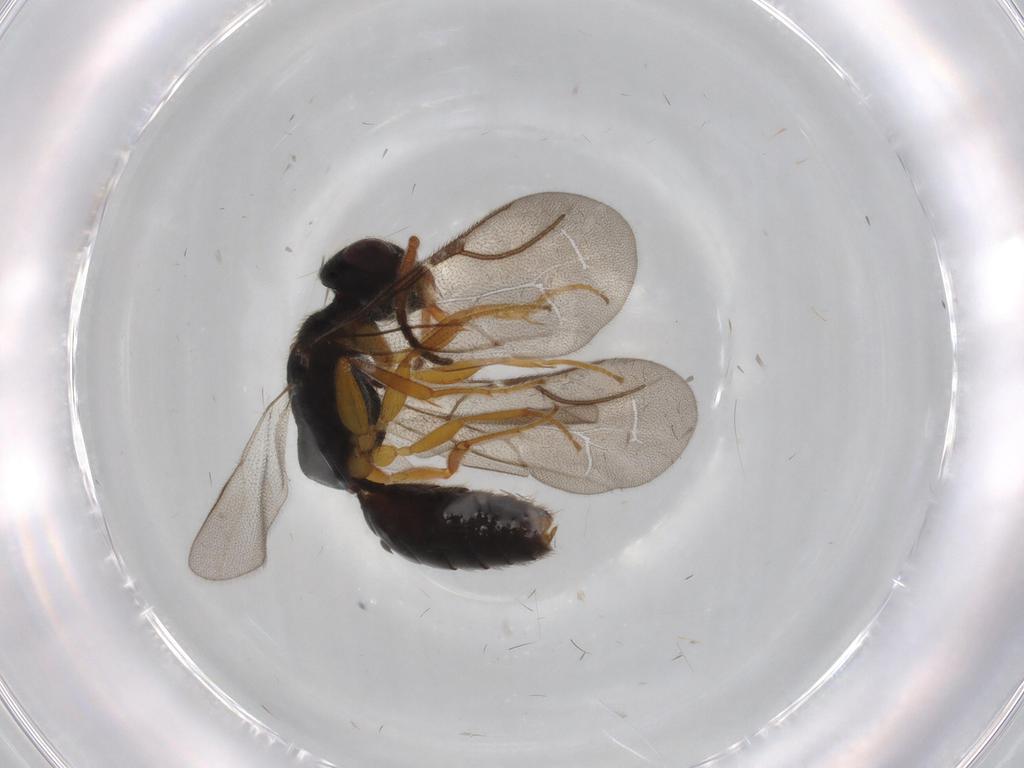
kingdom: Animalia
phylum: Arthropoda
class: Insecta
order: Hymenoptera
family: Bethylidae
